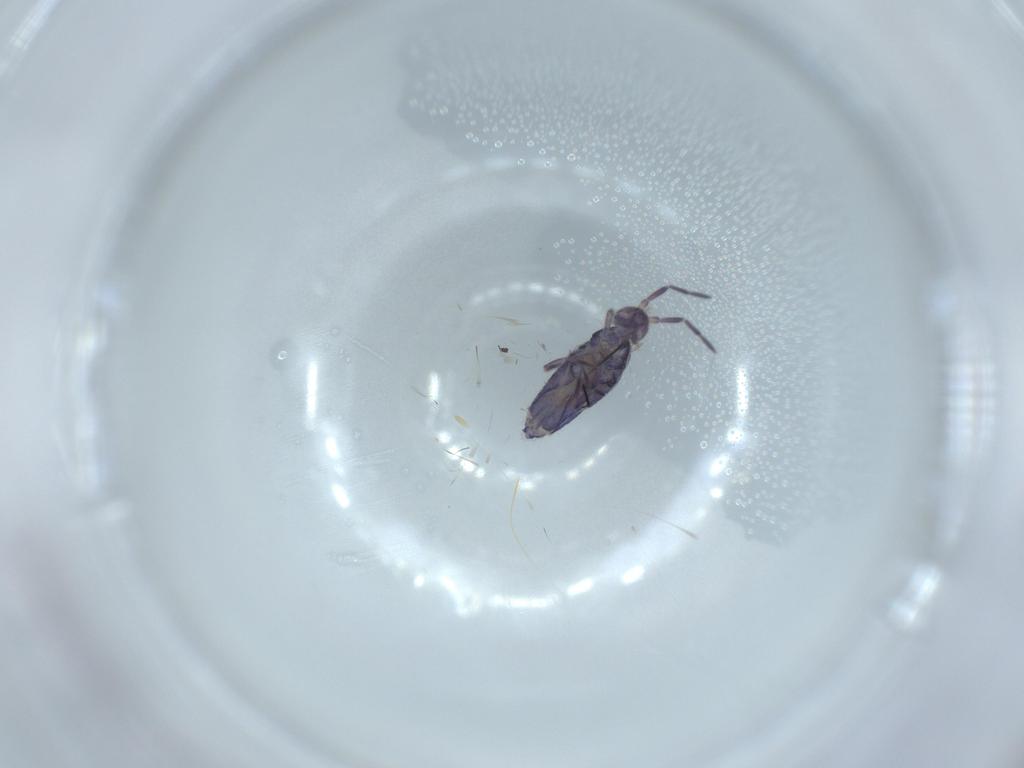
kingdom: Animalia
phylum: Arthropoda
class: Collembola
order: Entomobryomorpha
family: Entomobryidae
